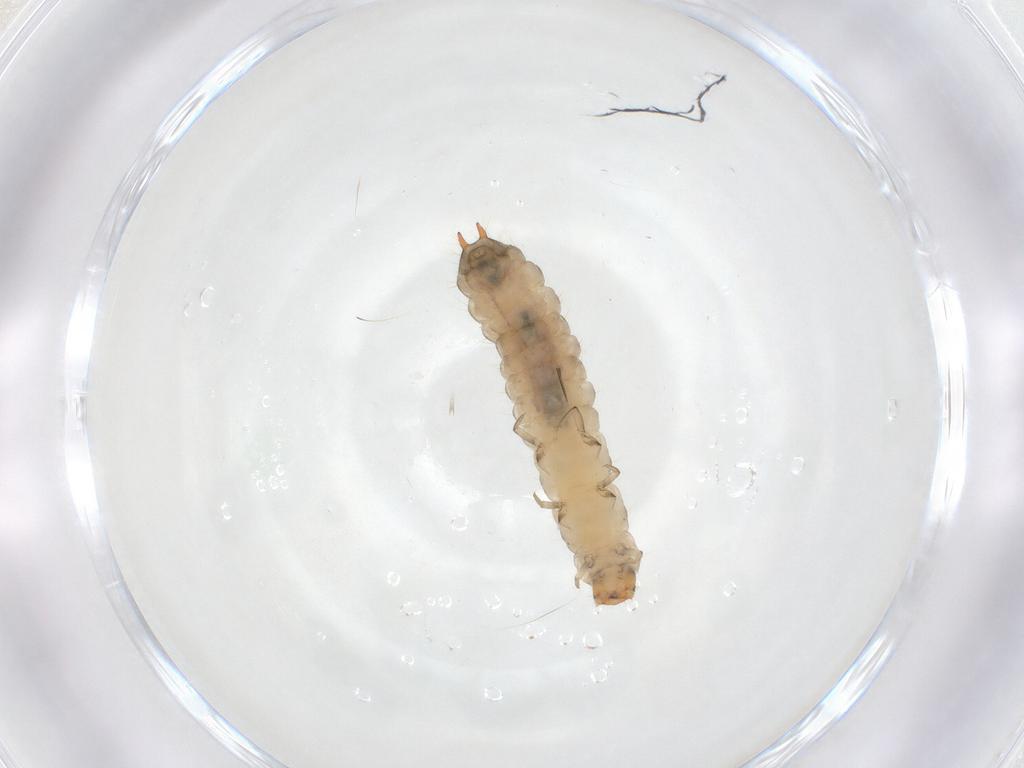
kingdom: Animalia
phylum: Arthropoda
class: Insecta
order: Coleoptera
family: Melyridae
